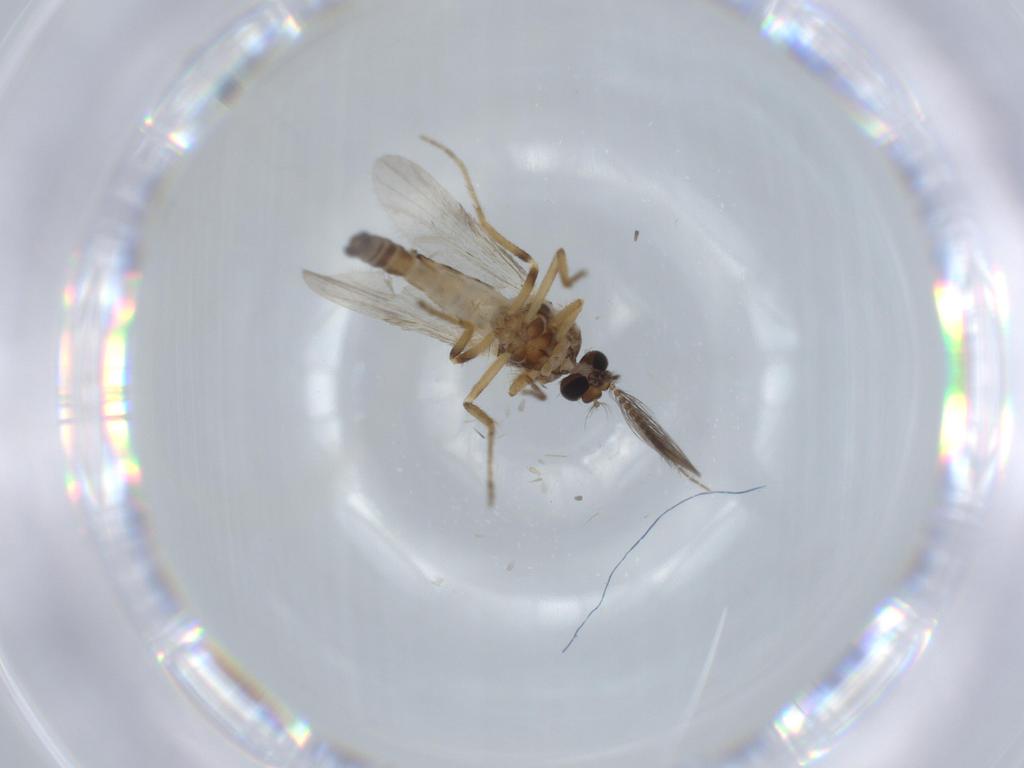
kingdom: Animalia
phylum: Arthropoda
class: Insecta
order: Diptera
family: Ceratopogonidae
